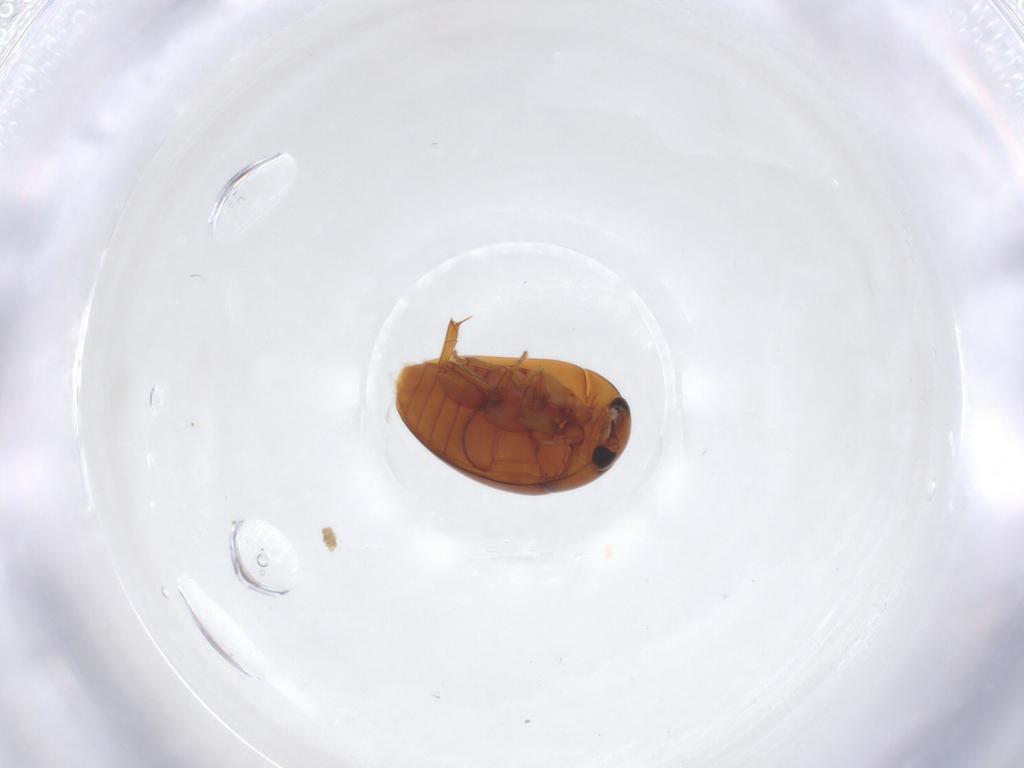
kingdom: Animalia
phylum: Arthropoda
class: Insecta
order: Coleoptera
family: Phalacridae
